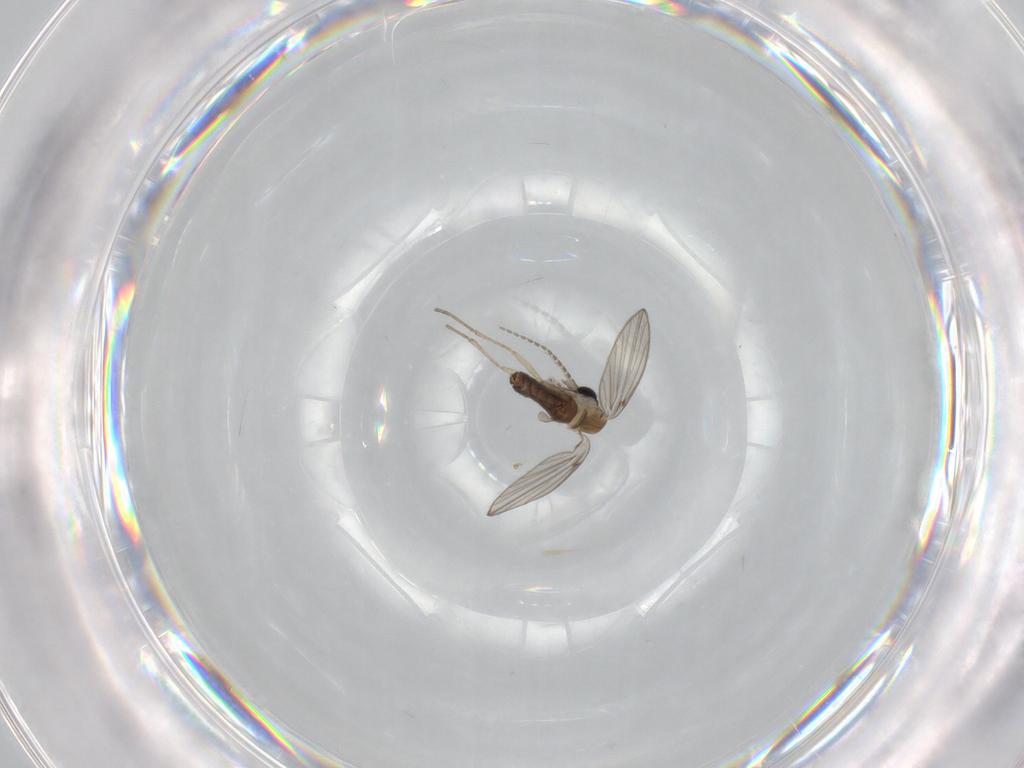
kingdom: Animalia
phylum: Arthropoda
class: Insecta
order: Diptera
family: Psychodidae
